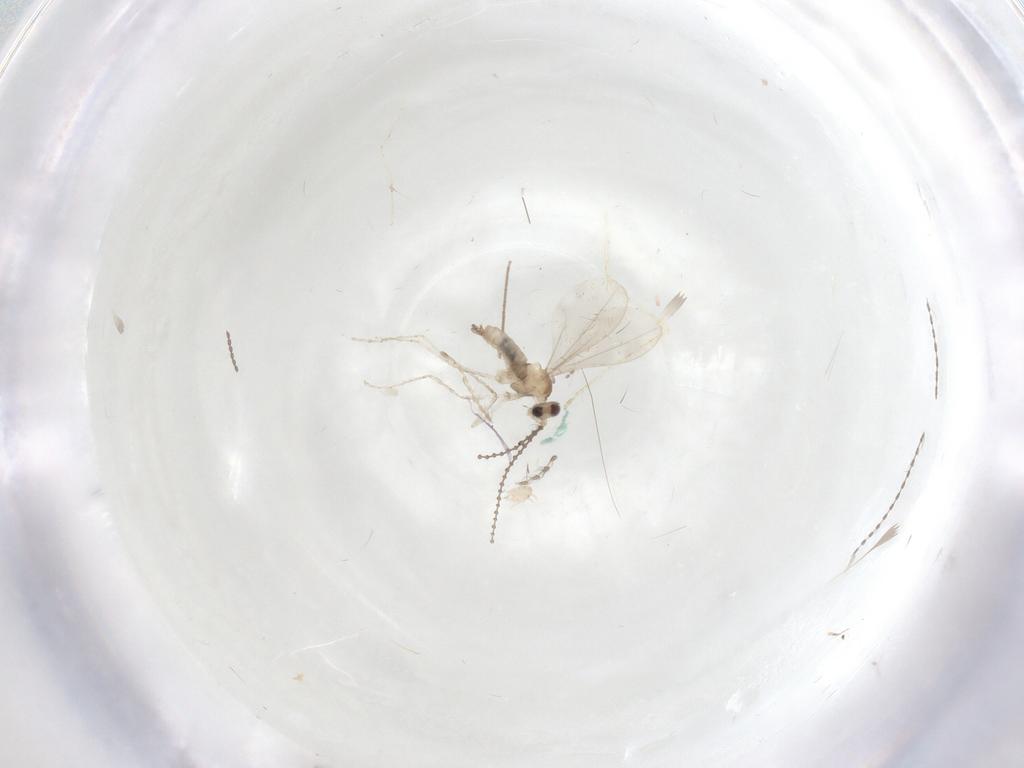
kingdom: Animalia
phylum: Arthropoda
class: Insecta
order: Diptera
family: Cecidomyiidae
